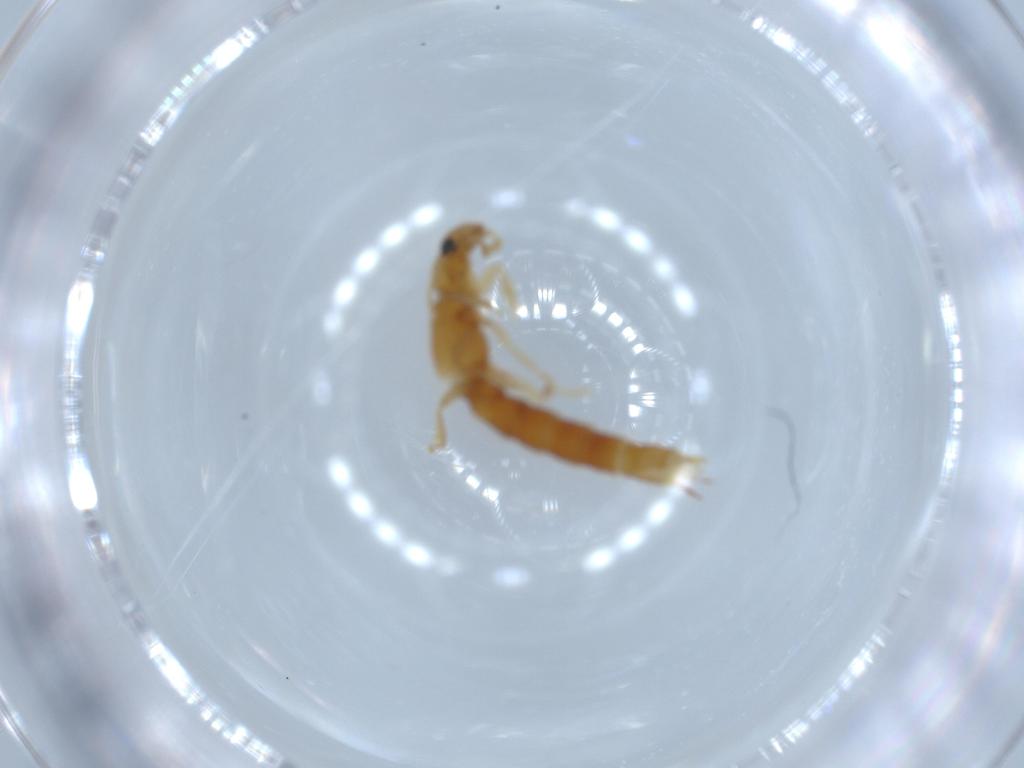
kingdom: Animalia
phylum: Arthropoda
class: Insecta
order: Coleoptera
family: Staphylinidae
